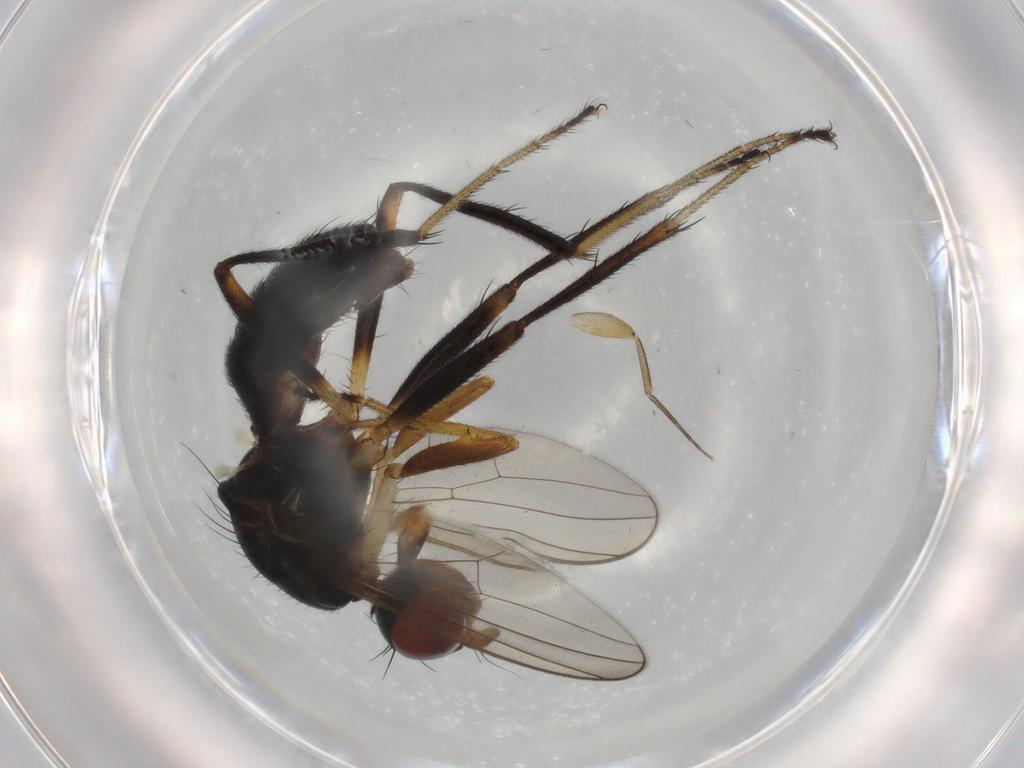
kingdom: Animalia
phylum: Arthropoda
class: Insecta
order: Diptera
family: Sepsidae
